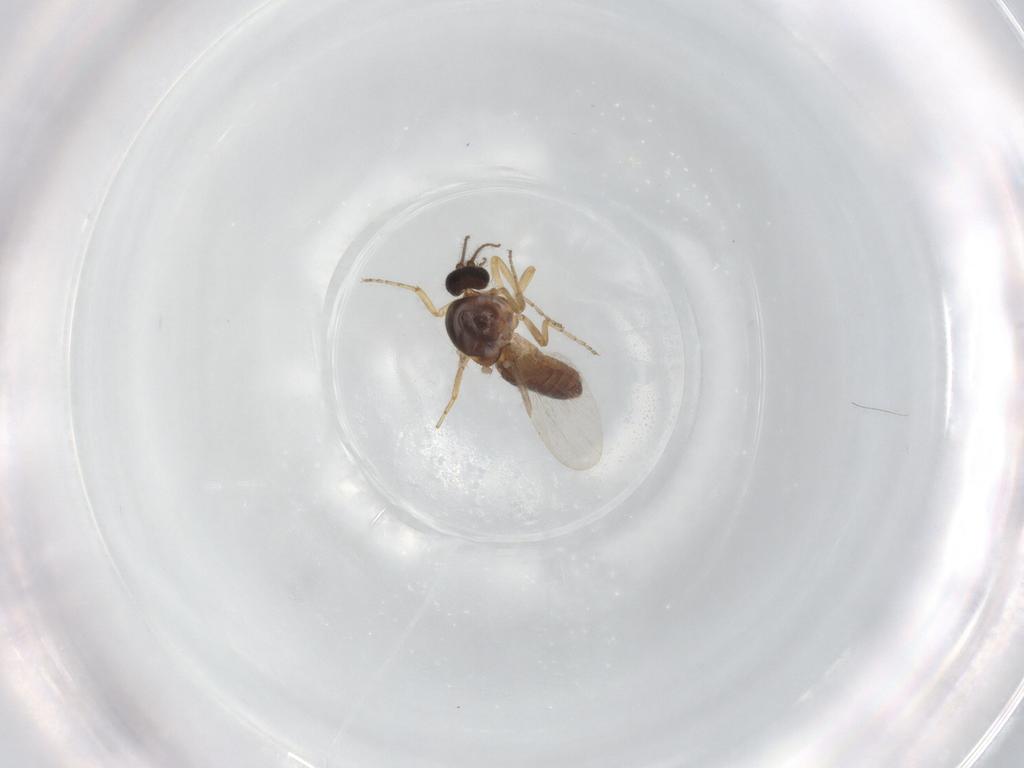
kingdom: Animalia
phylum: Arthropoda
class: Insecta
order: Diptera
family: Ceratopogonidae
